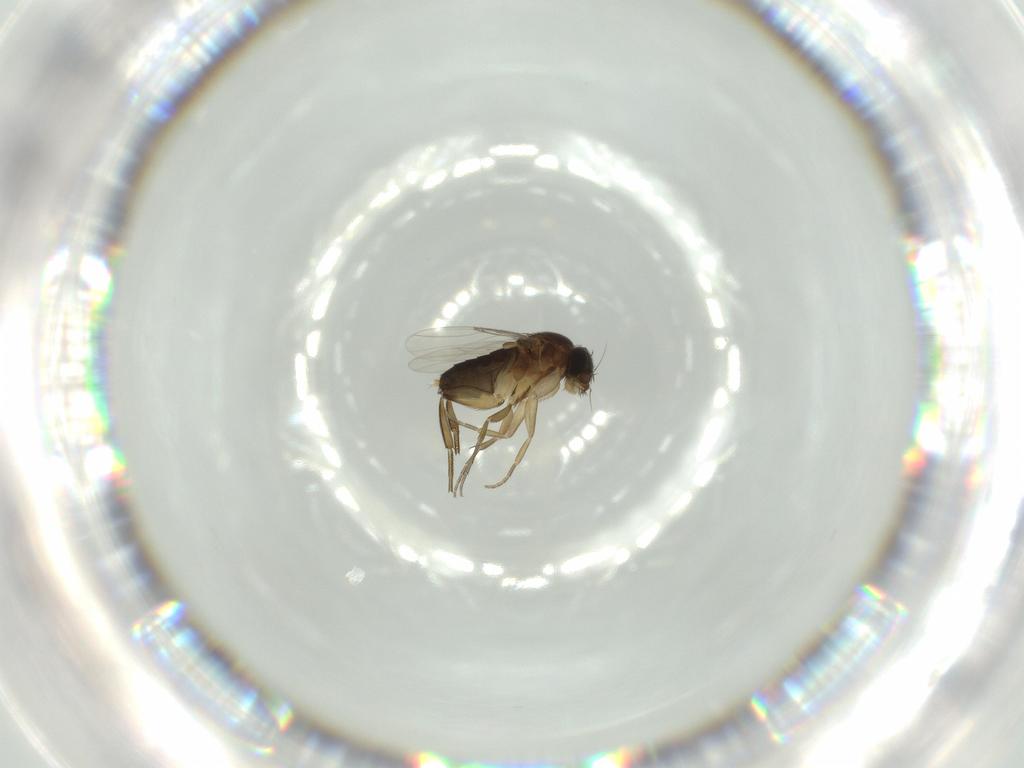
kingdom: Animalia
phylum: Arthropoda
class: Insecta
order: Diptera
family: Phoridae
